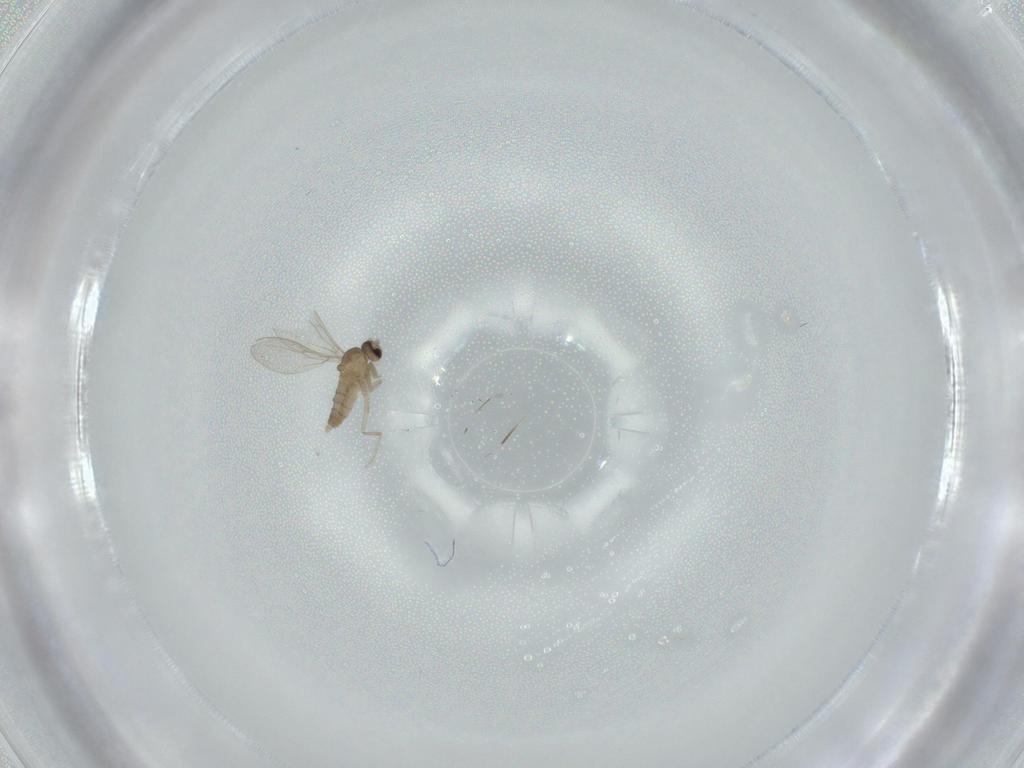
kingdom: Animalia
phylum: Arthropoda
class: Insecta
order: Diptera
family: Cecidomyiidae
